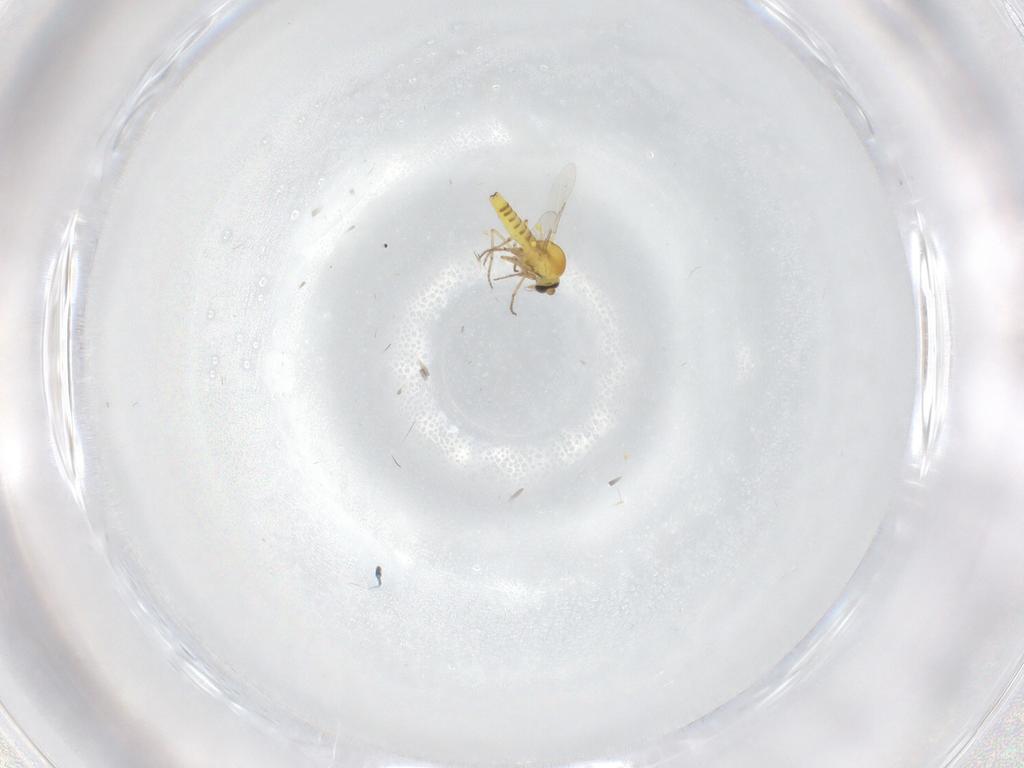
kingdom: Animalia
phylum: Arthropoda
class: Insecta
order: Diptera
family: Ceratopogonidae
